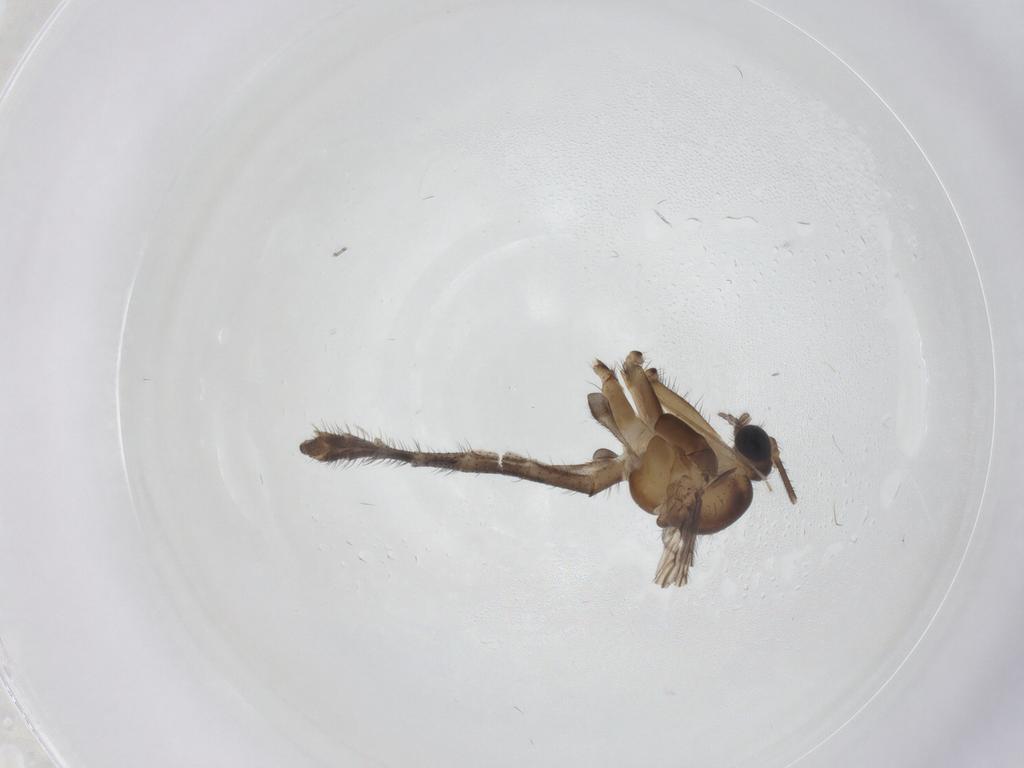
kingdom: Animalia
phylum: Arthropoda
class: Insecta
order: Diptera
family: Keroplatidae
